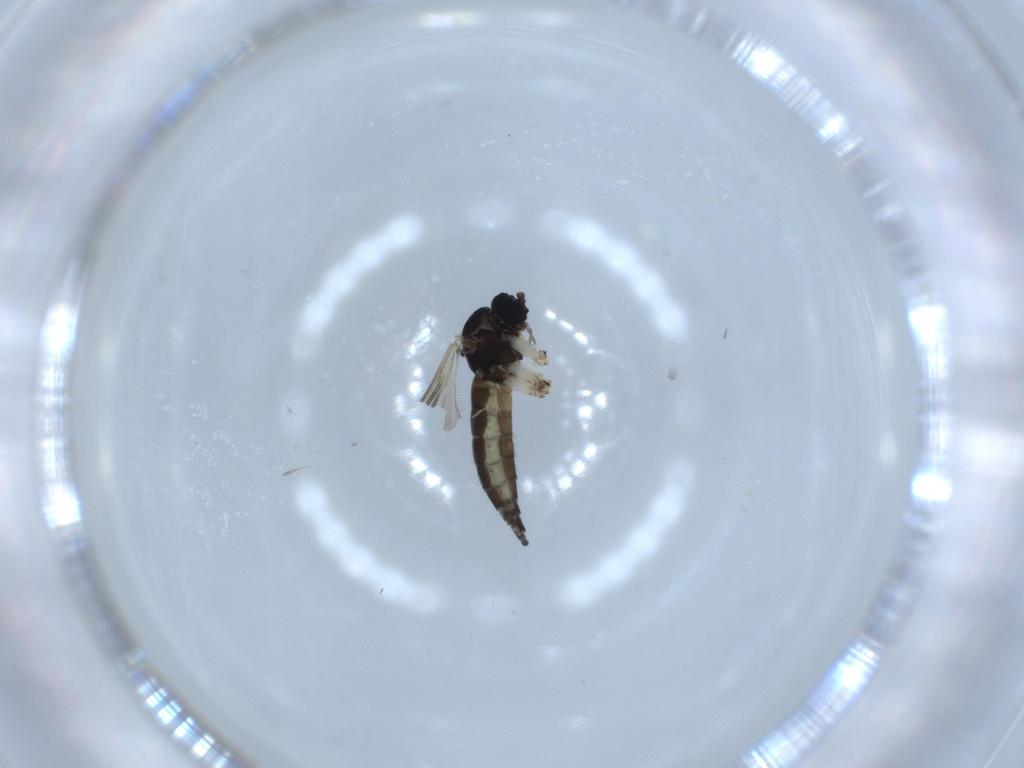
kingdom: Animalia
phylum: Arthropoda
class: Insecta
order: Diptera
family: Sciaridae
